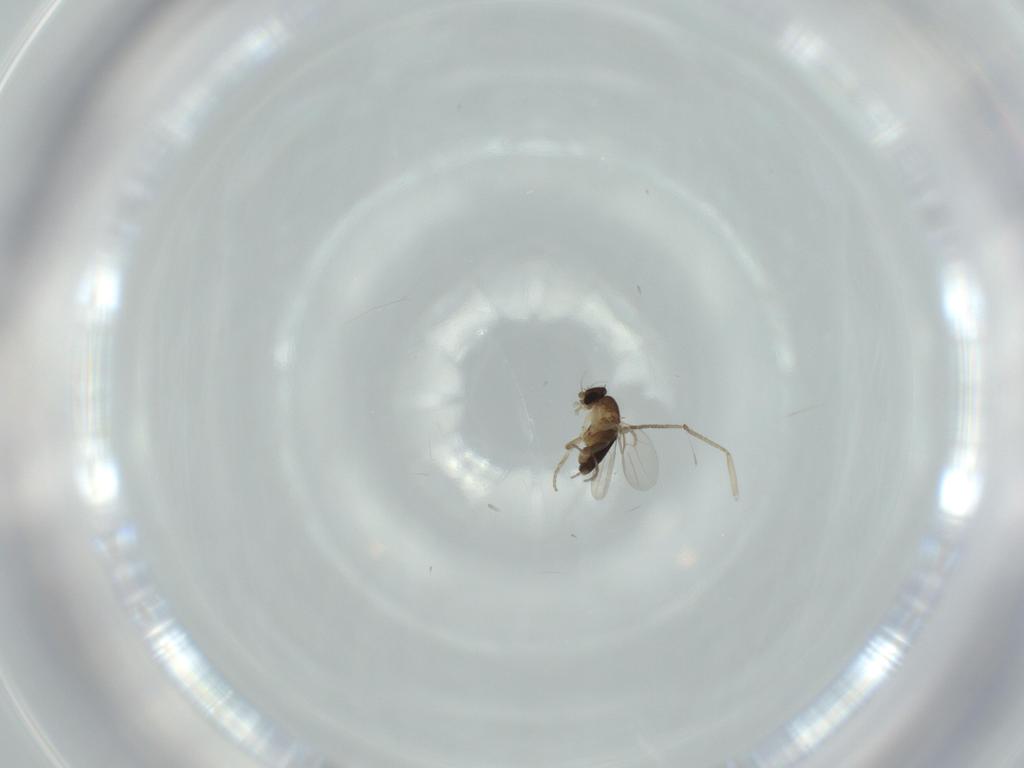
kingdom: Animalia
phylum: Arthropoda
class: Insecta
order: Diptera
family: Phoridae
